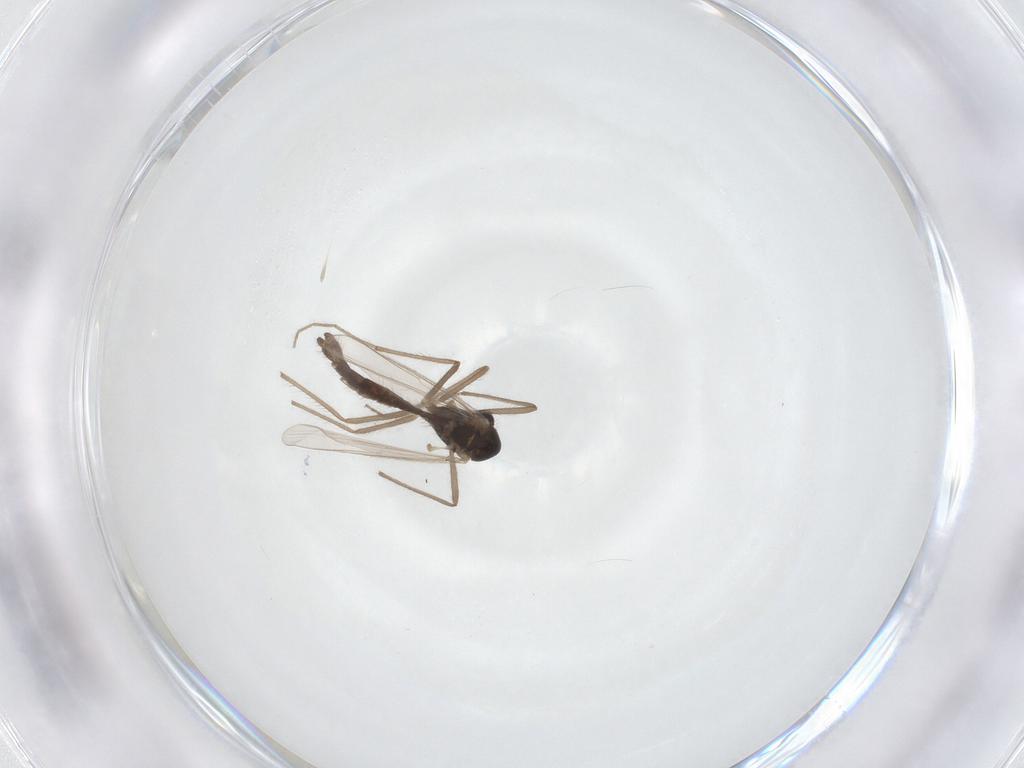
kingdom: Animalia
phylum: Arthropoda
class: Insecta
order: Diptera
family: Chironomidae
